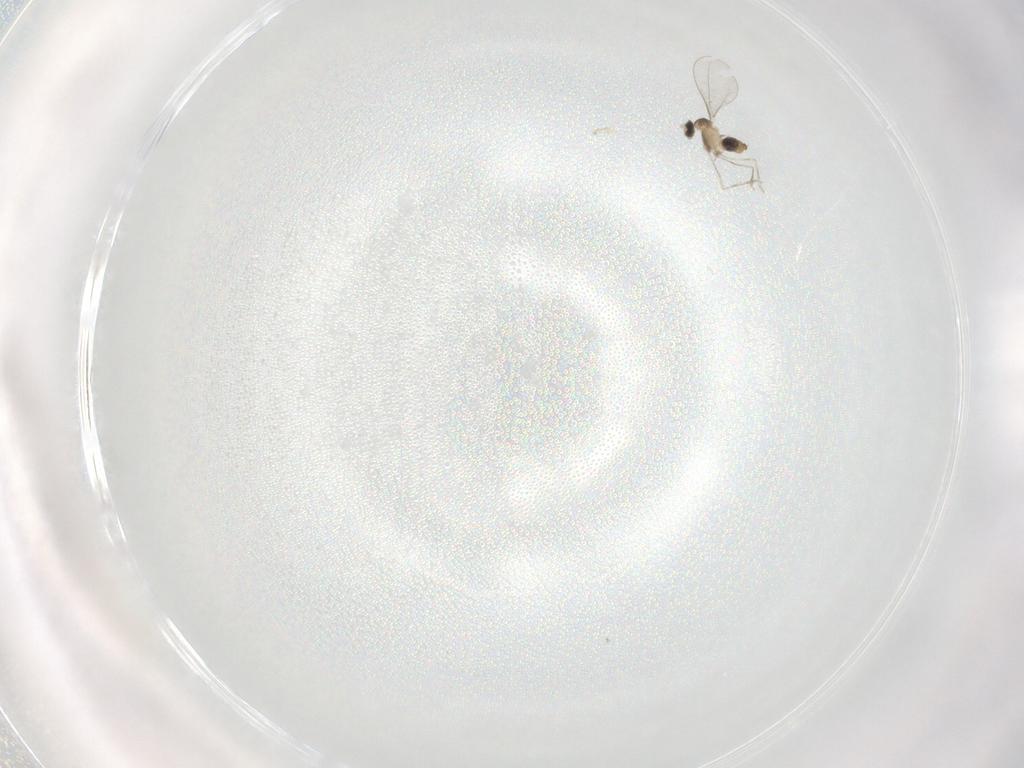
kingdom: Animalia
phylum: Arthropoda
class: Insecta
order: Diptera
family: Cecidomyiidae
